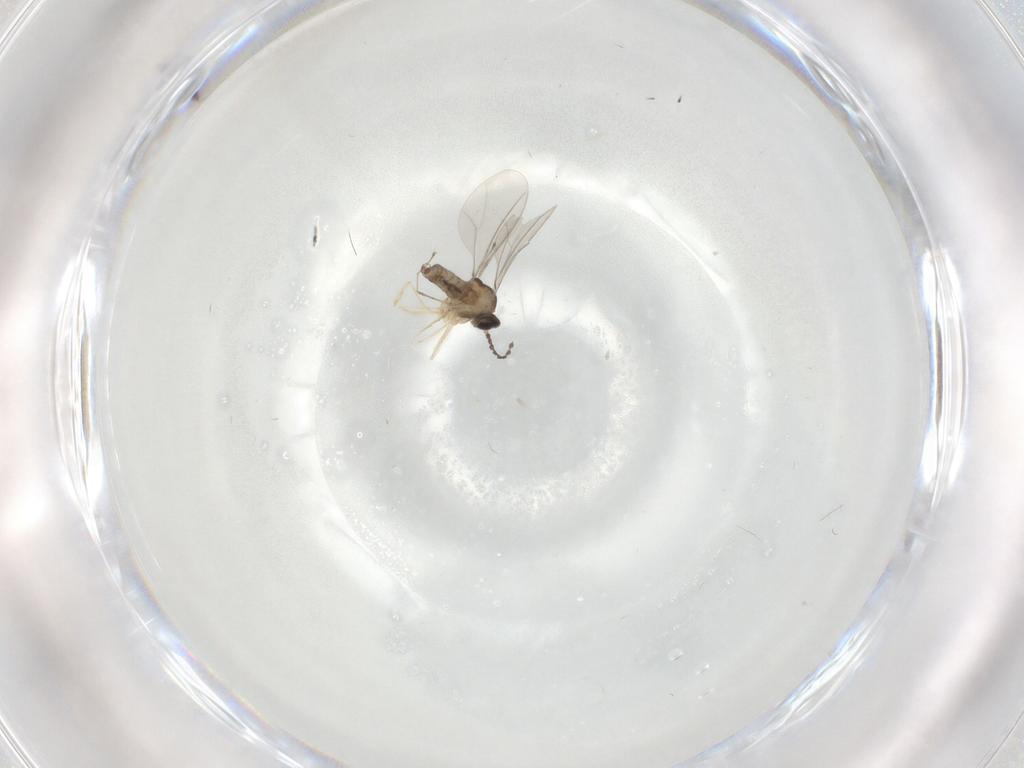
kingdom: Animalia
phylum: Arthropoda
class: Insecta
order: Diptera
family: Cecidomyiidae
